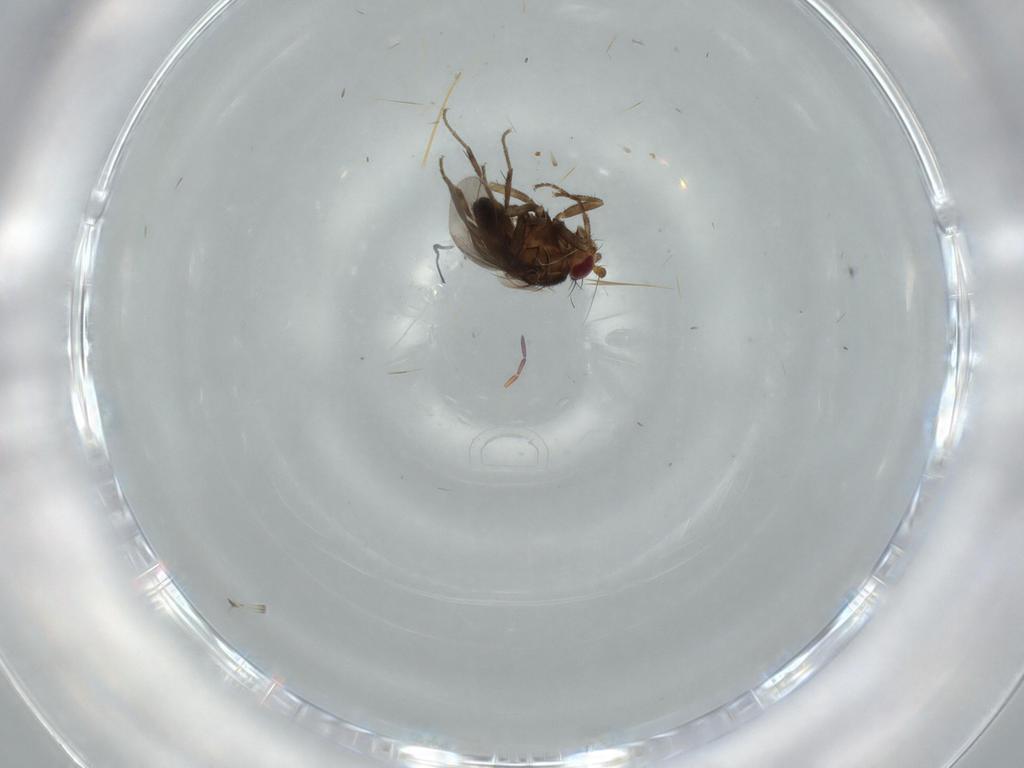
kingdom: Animalia
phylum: Arthropoda
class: Insecta
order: Diptera
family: Sphaeroceridae
